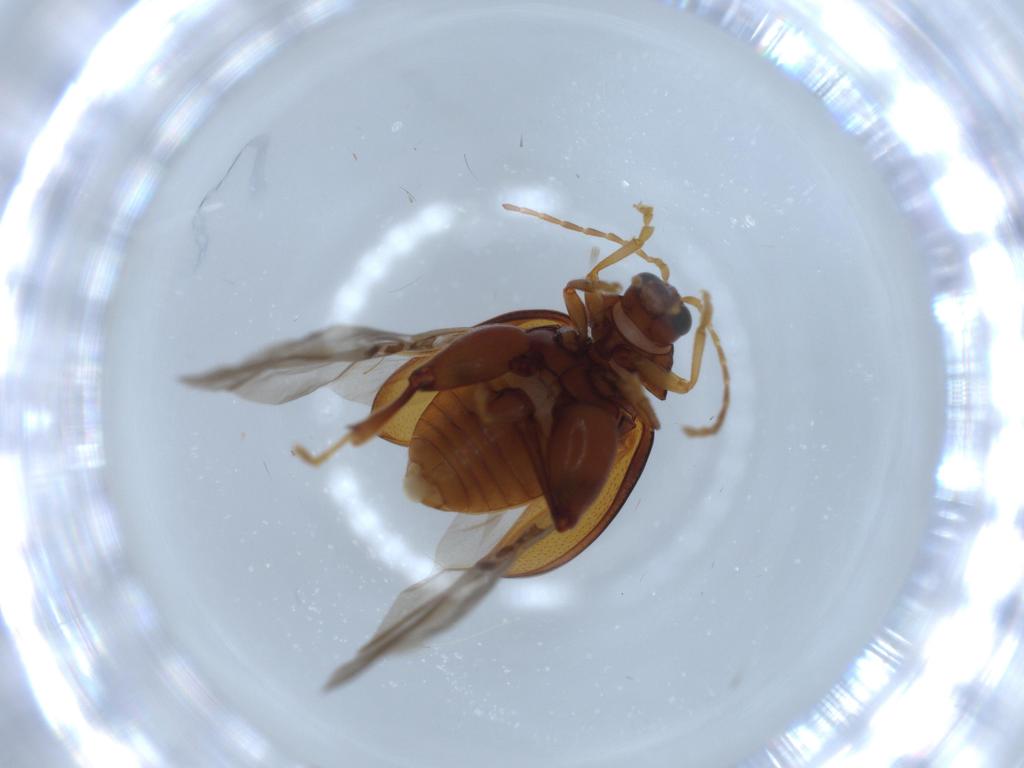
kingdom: Animalia
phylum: Arthropoda
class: Insecta
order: Coleoptera
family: Chrysomelidae
